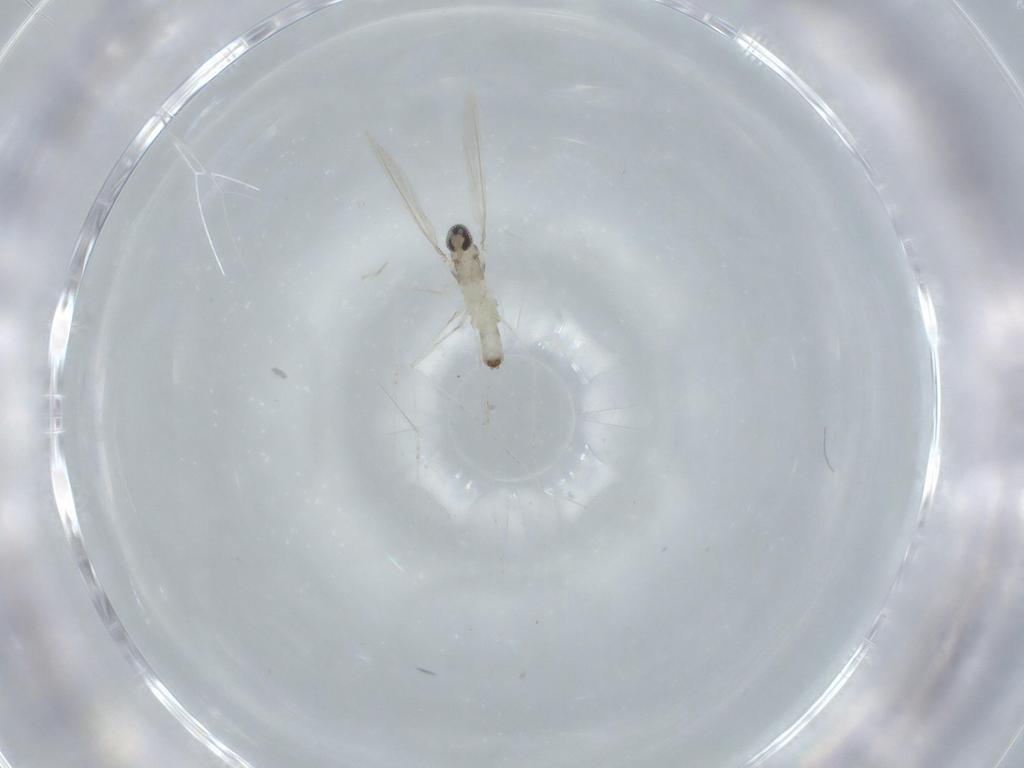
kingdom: Animalia
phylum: Arthropoda
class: Insecta
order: Diptera
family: Cecidomyiidae
